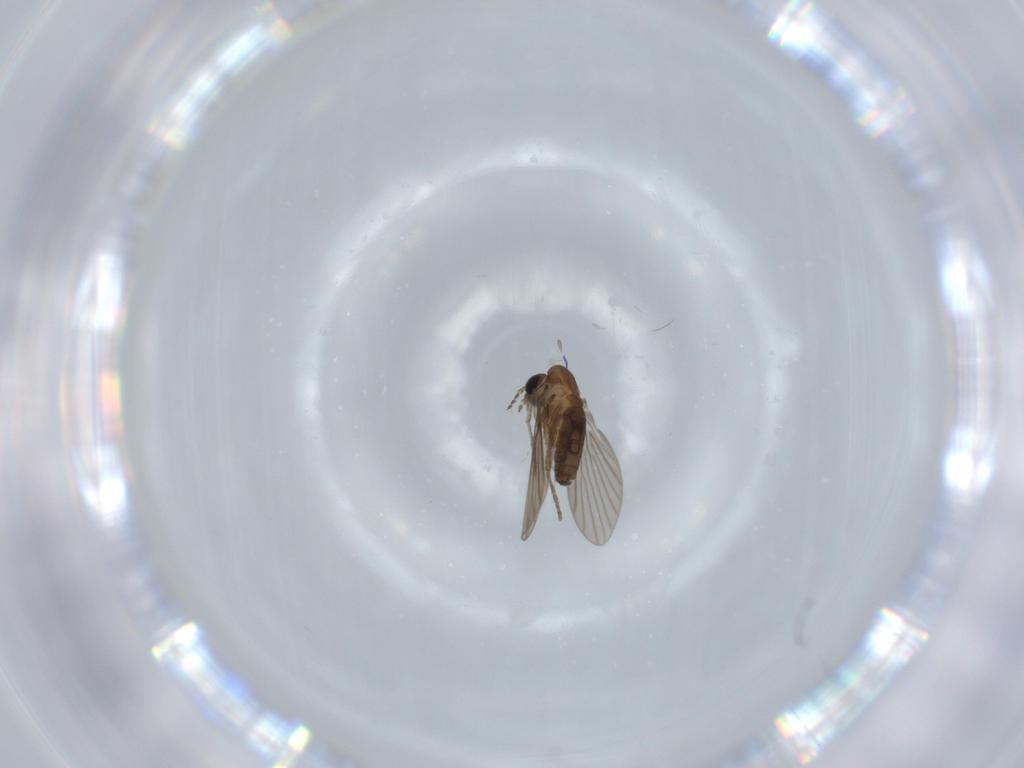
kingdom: Animalia
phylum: Arthropoda
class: Insecta
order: Diptera
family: Psychodidae
